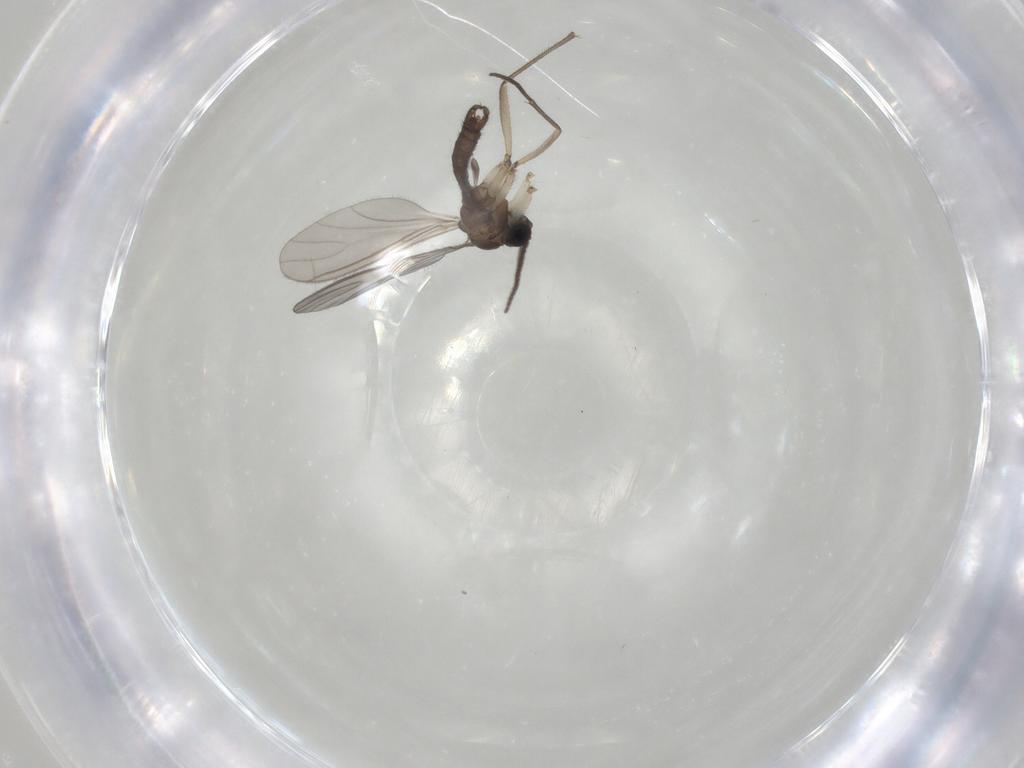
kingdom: Animalia
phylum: Arthropoda
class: Insecta
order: Diptera
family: Sciaridae
